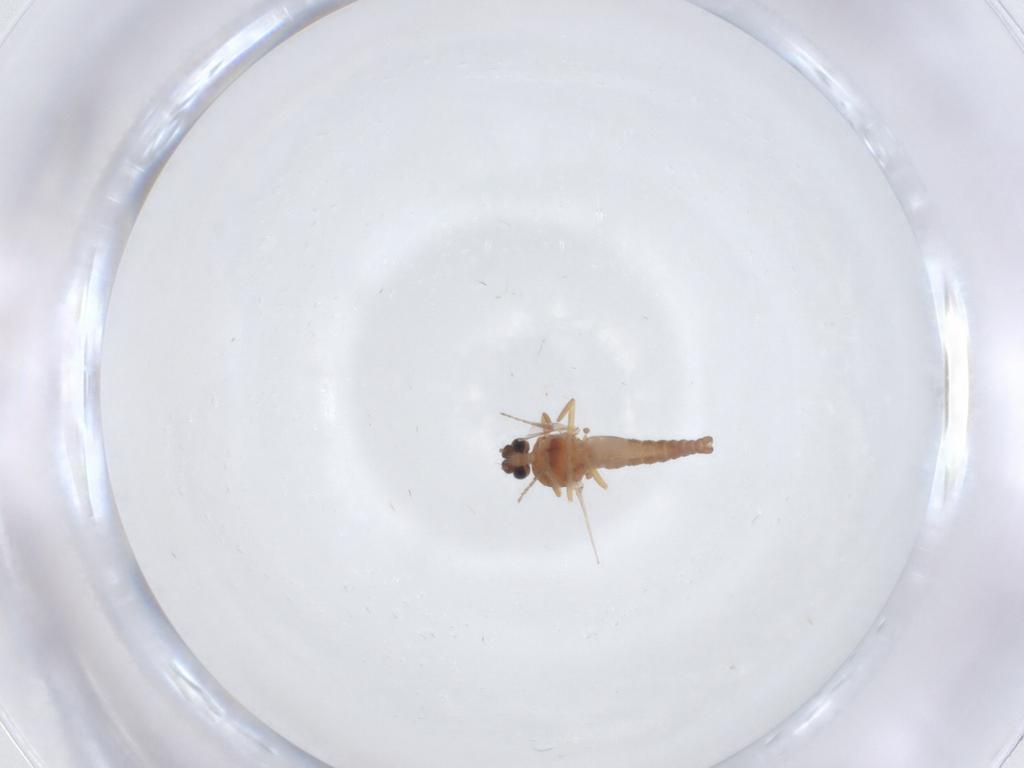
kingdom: Animalia
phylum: Arthropoda
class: Insecta
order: Diptera
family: Cecidomyiidae
